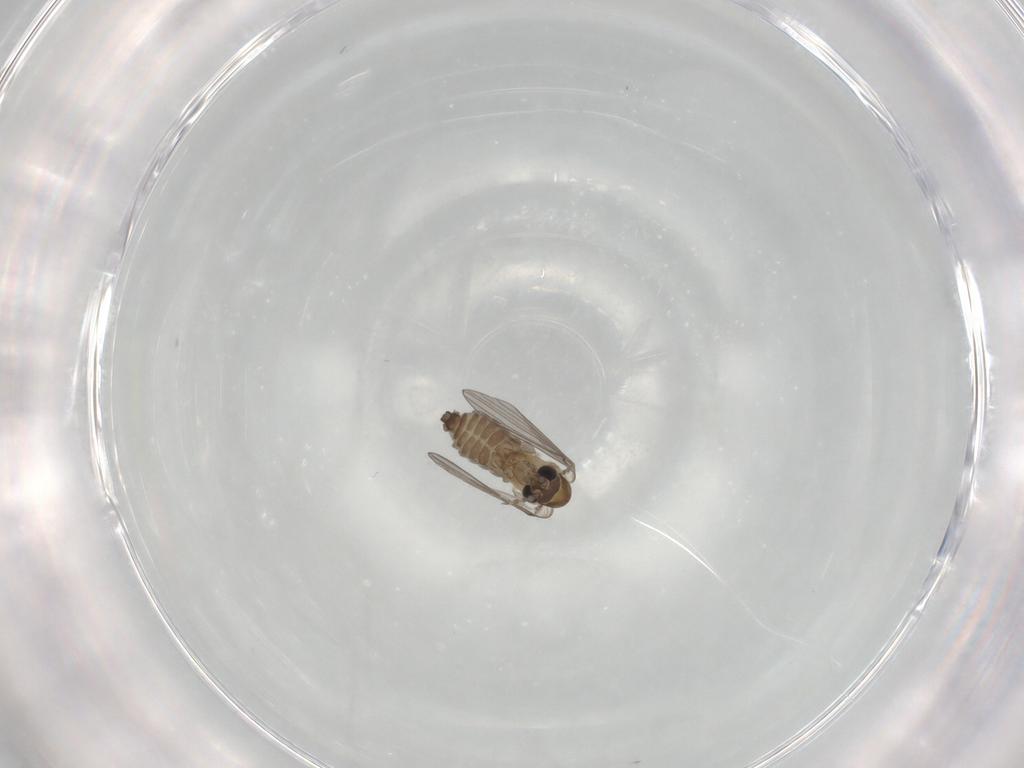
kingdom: Animalia
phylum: Arthropoda
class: Insecta
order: Diptera
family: Psychodidae
